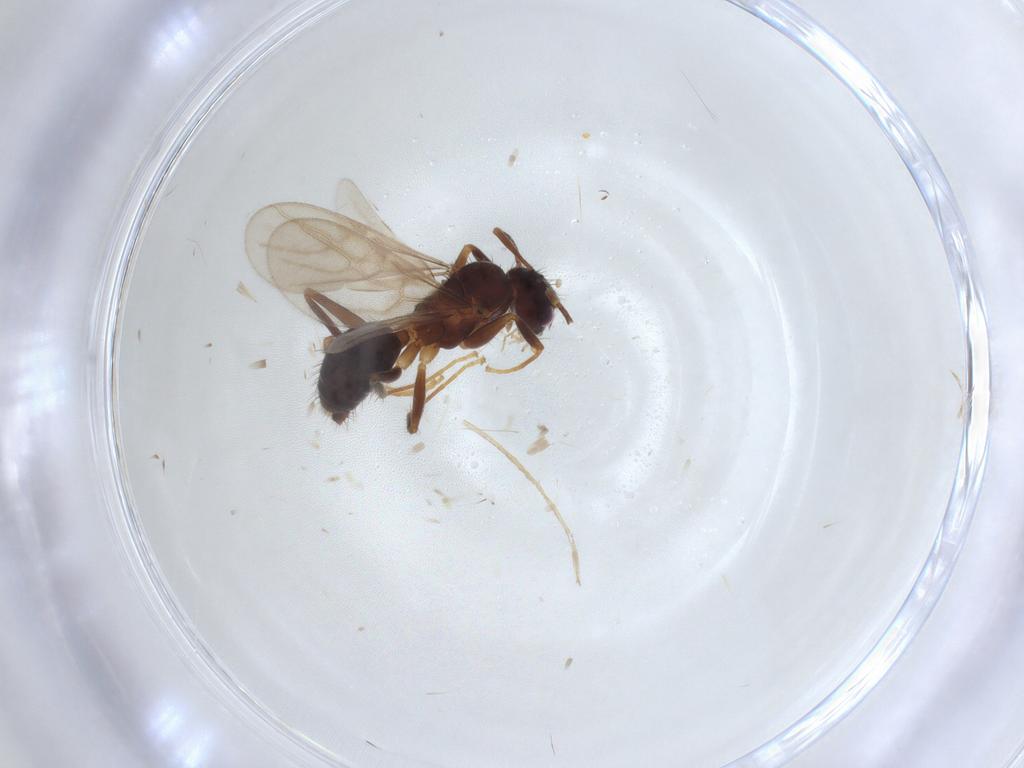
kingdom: Animalia
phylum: Arthropoda
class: Insecta
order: Hymenoptera
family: Formicidae
